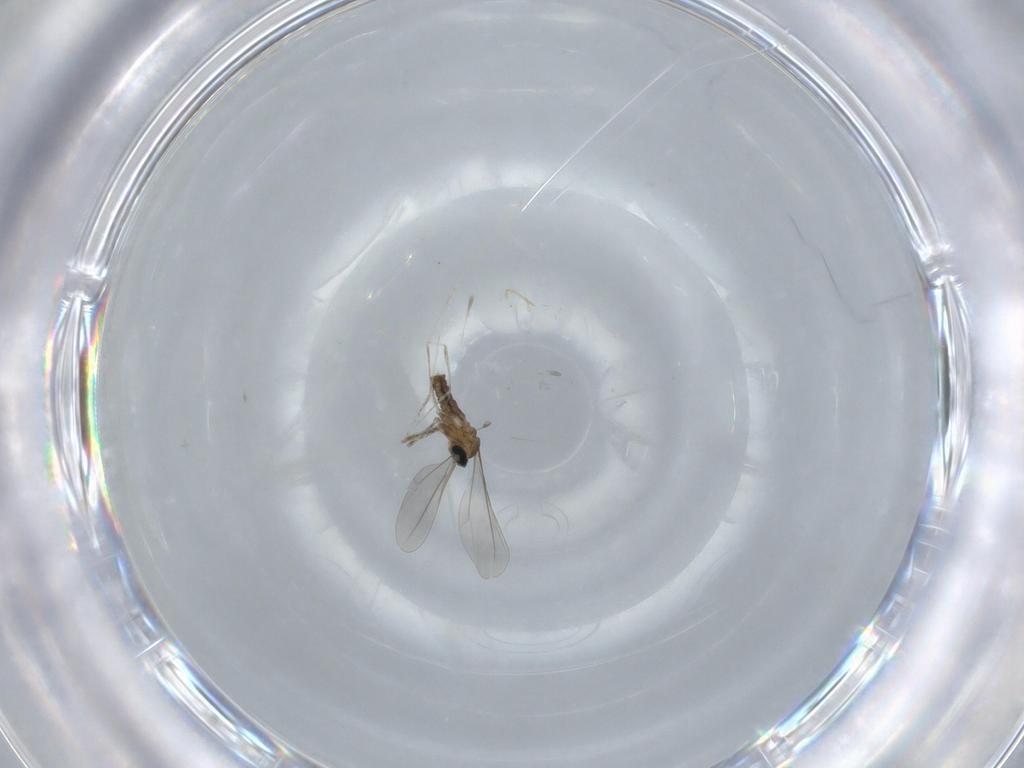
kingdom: Animalia
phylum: Arthropoda
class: Insecta
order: Diptera
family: Cecidomyiidae
